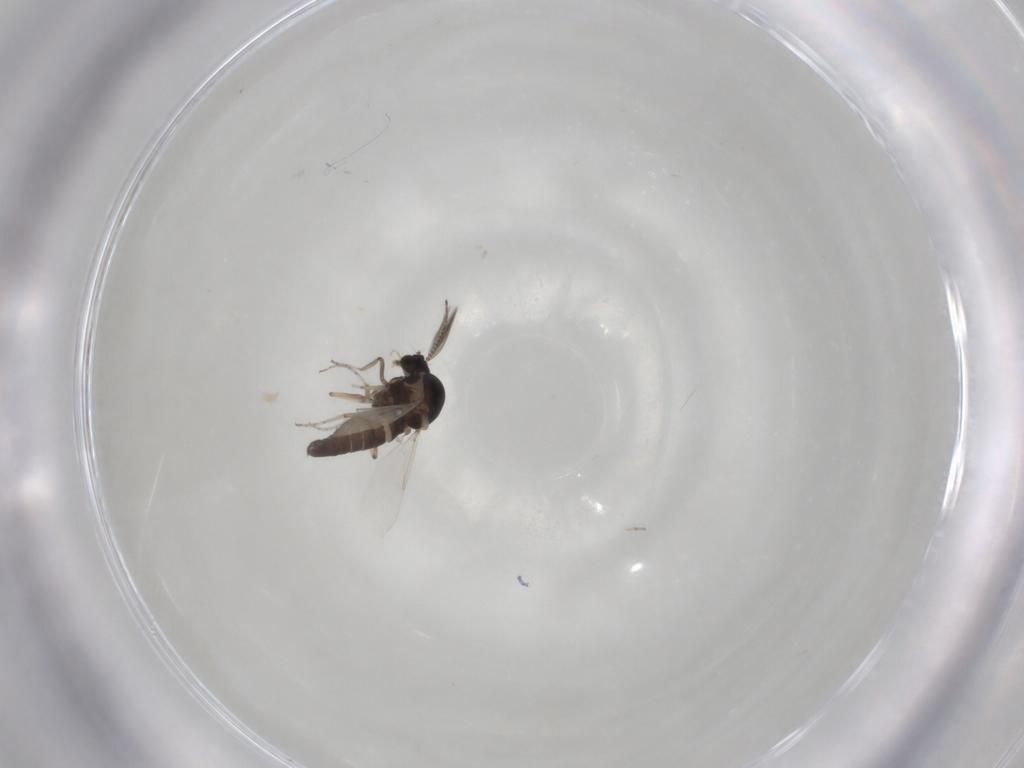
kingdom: Animalia
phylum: Arthropoda
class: Insecta
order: Diptera
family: Ceratopogonidae
